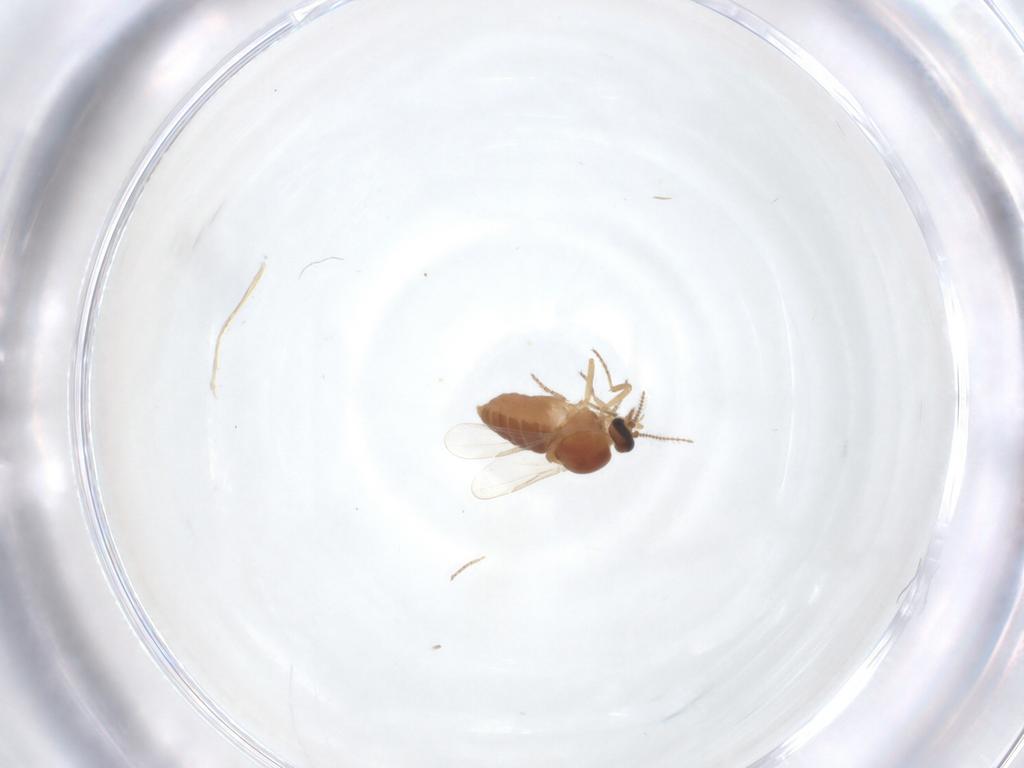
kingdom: Animalia
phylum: Arthropoda
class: Insecta
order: Diptera
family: Ceratopogonidae
